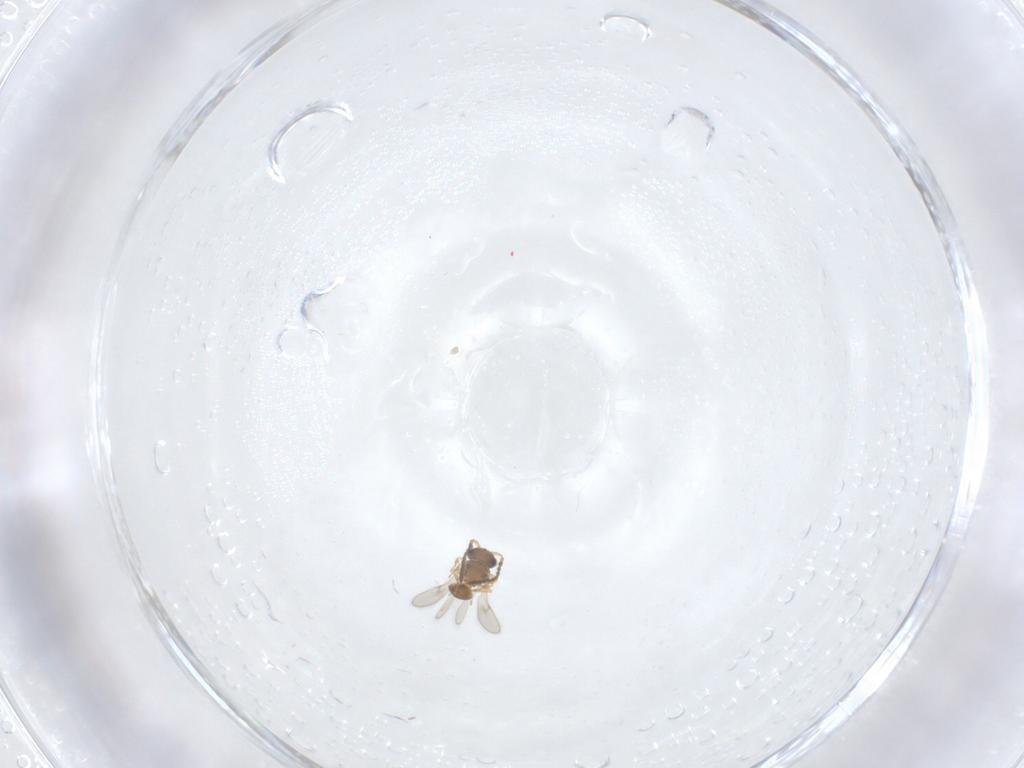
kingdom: Animalia
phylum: Arthropoda
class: Insecta
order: Hymenoptera
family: Scelionidae
